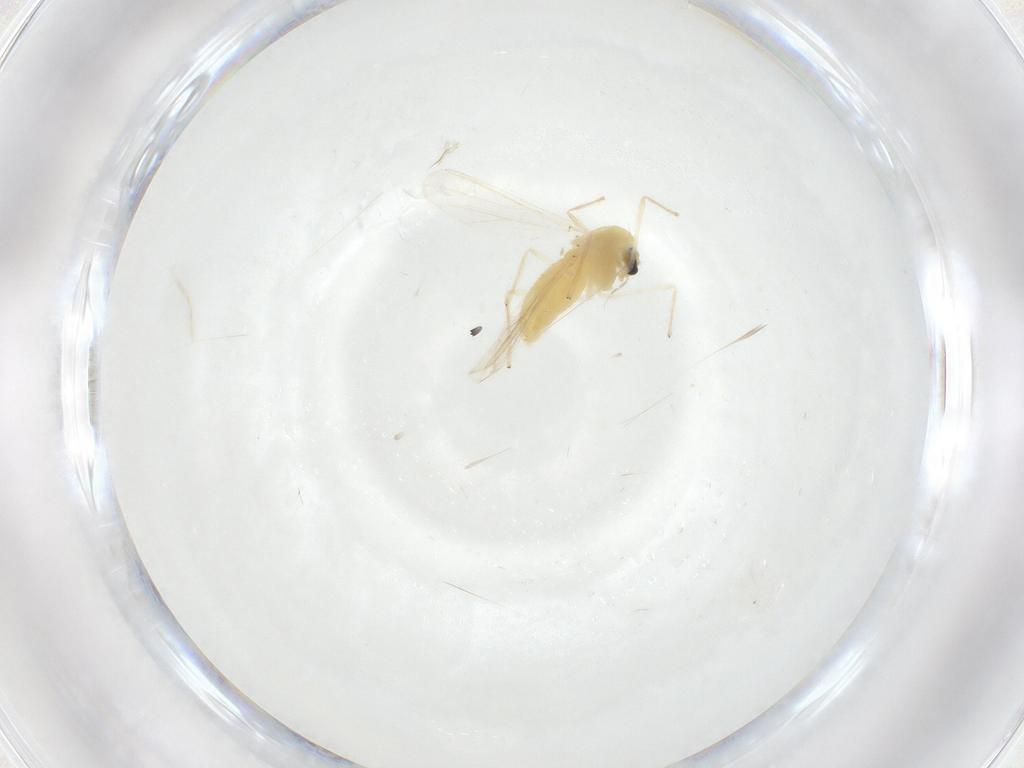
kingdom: Animalia
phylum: Arthropoda
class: Insecta
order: Diptera
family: Chironomidae
